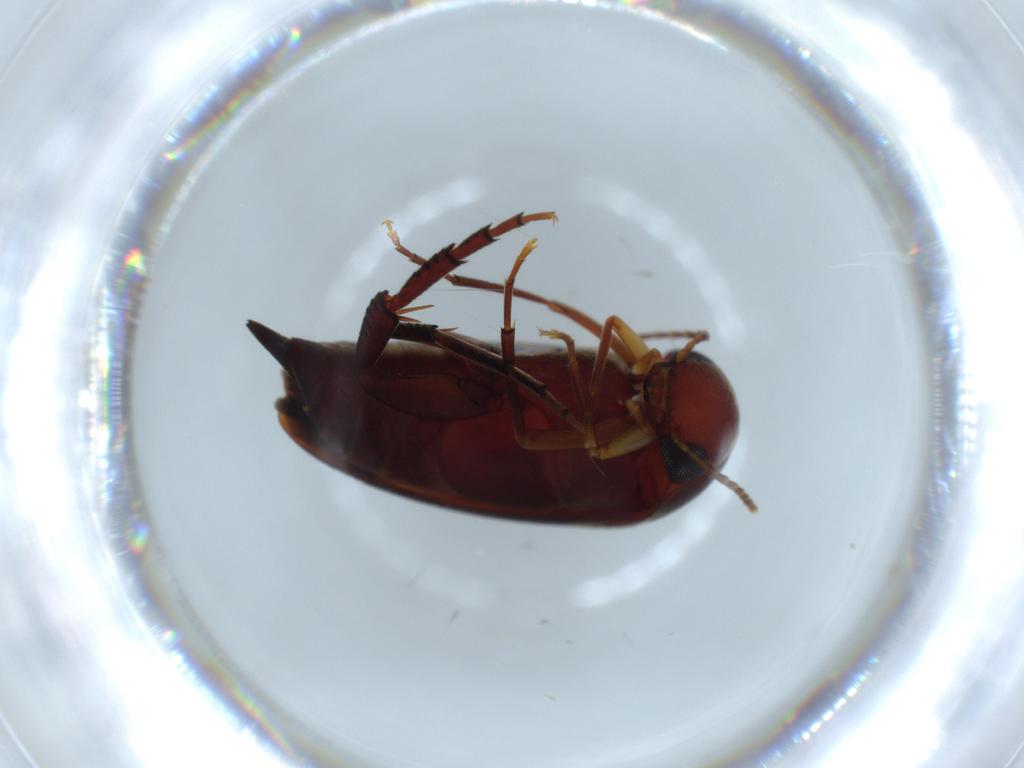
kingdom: Animalia
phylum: Arthropoda
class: Insecta
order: Coleoptera
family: Mordellidae
